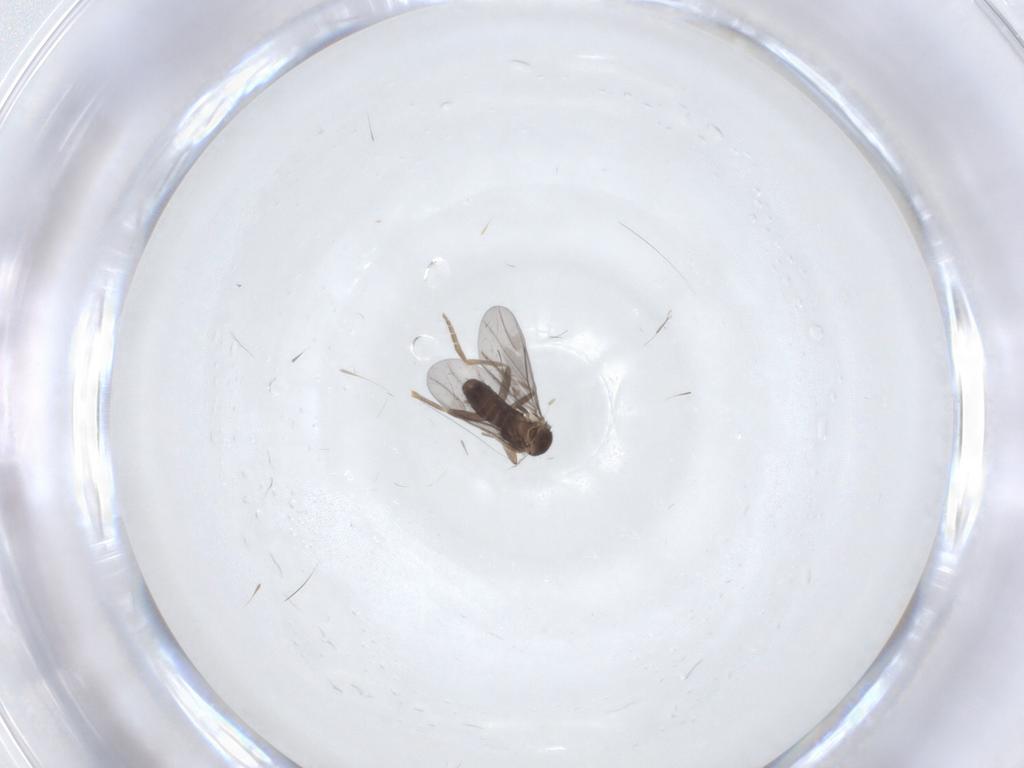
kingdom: Animalia
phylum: Arthropoda
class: Insecta
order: Diptera
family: Ceratopogonidae
